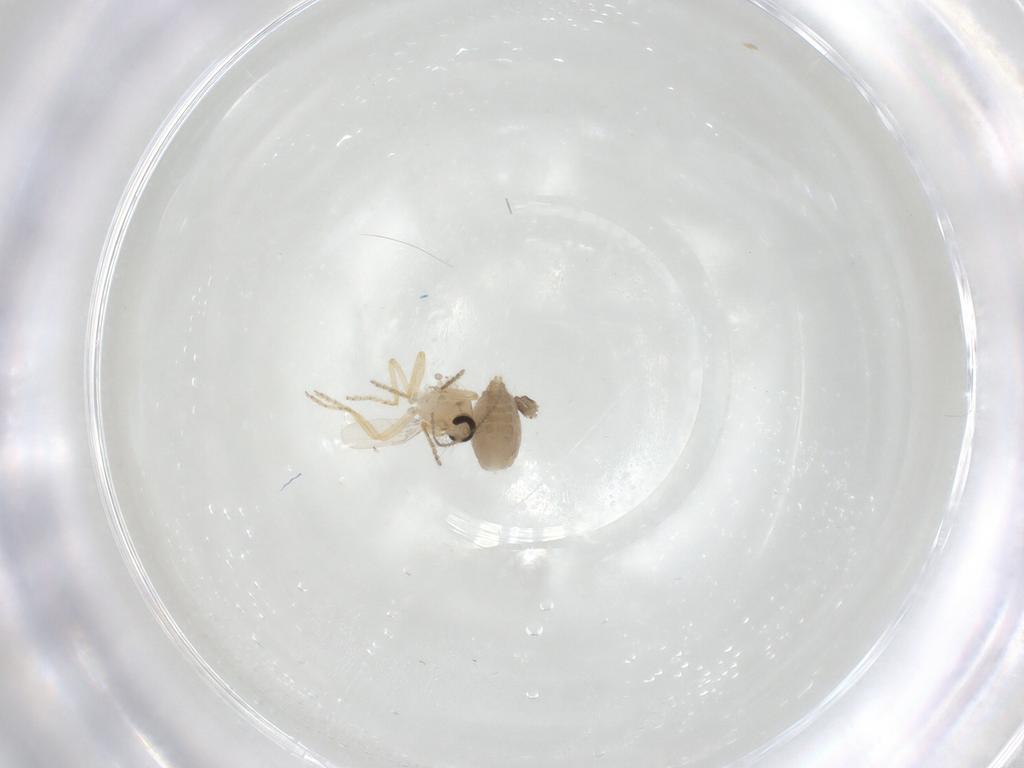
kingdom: Animalia
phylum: Arthropoda
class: Insecta
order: Diptera
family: Ceratopogonidae
